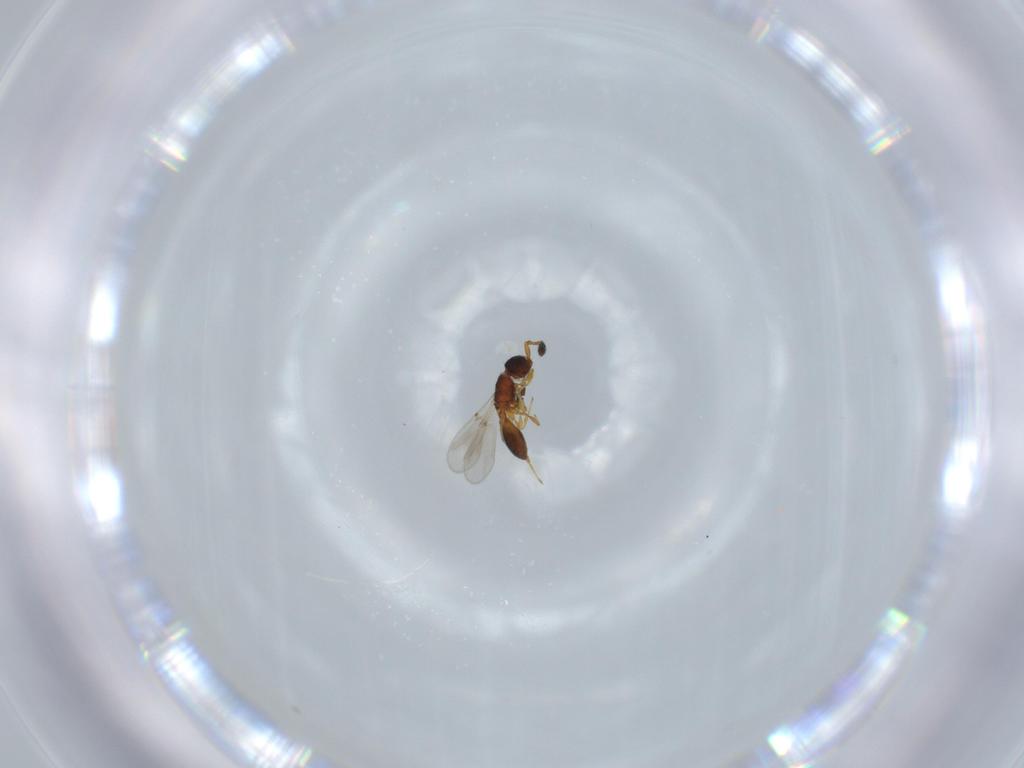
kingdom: Animalia
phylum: Arthropoda
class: Insecta
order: Hymenoptera
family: Diapriidae
